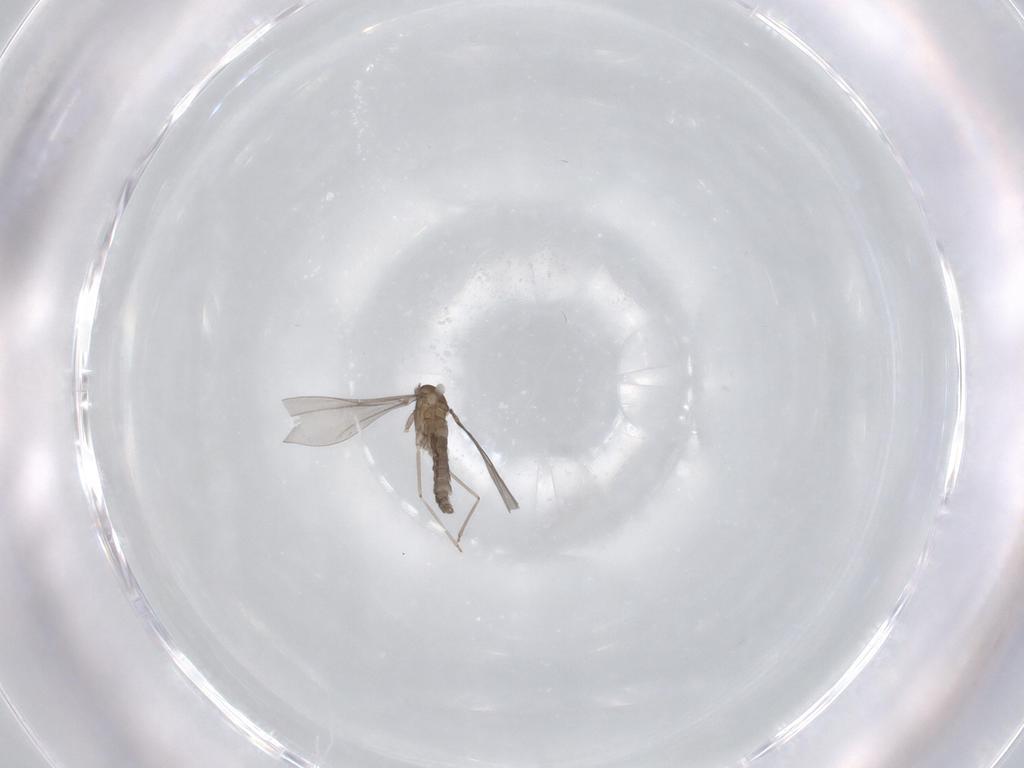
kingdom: Animalia
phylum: Arthropoda
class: Insecta
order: Diptera
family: Cecidomyiidae
